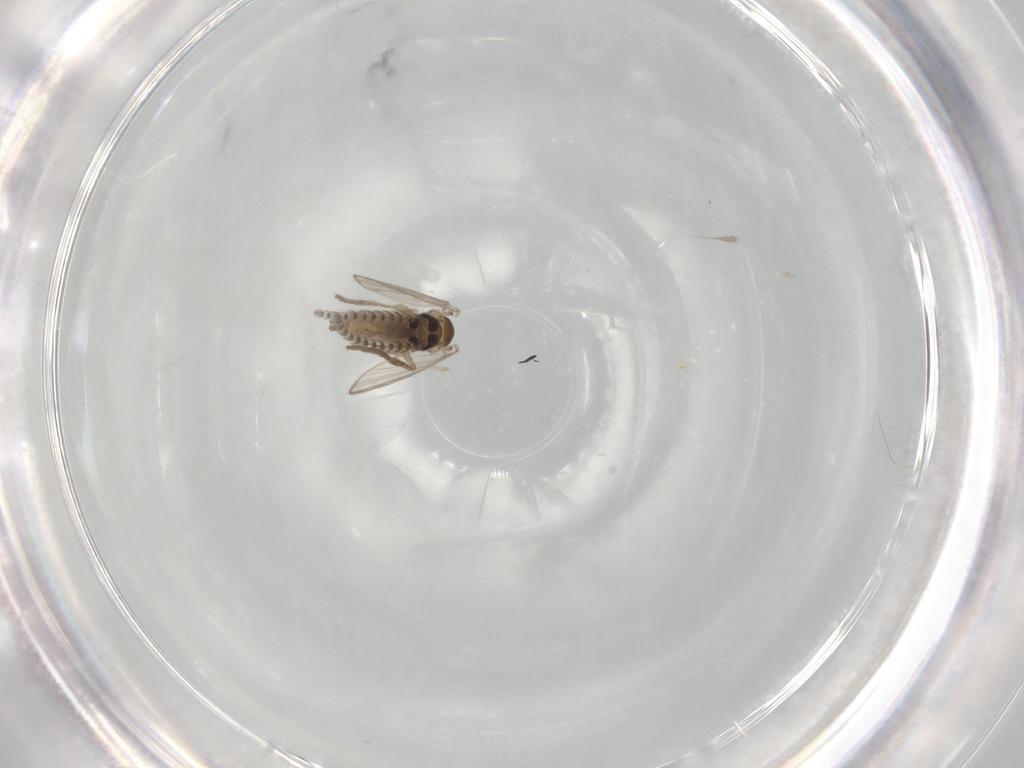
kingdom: Animalia
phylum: Arthropoda
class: Insecta
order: Diptera
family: Psychodidae
